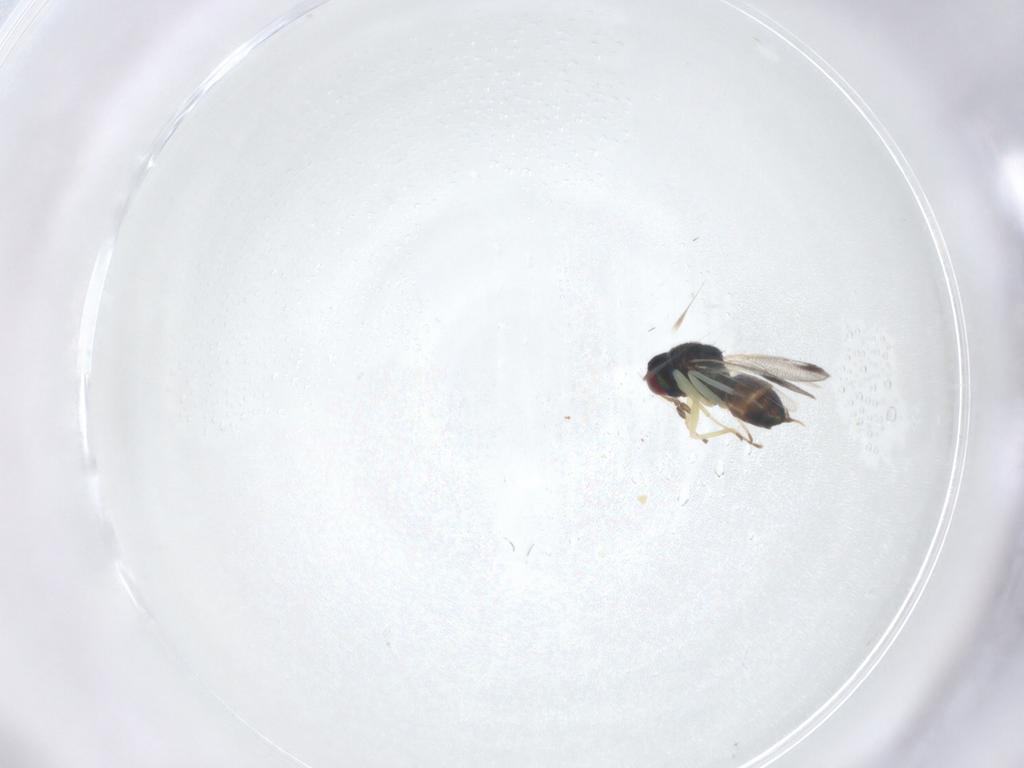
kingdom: Animalia
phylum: Arthropoda
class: Insecta
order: Hymenoptera
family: Eulophidae
